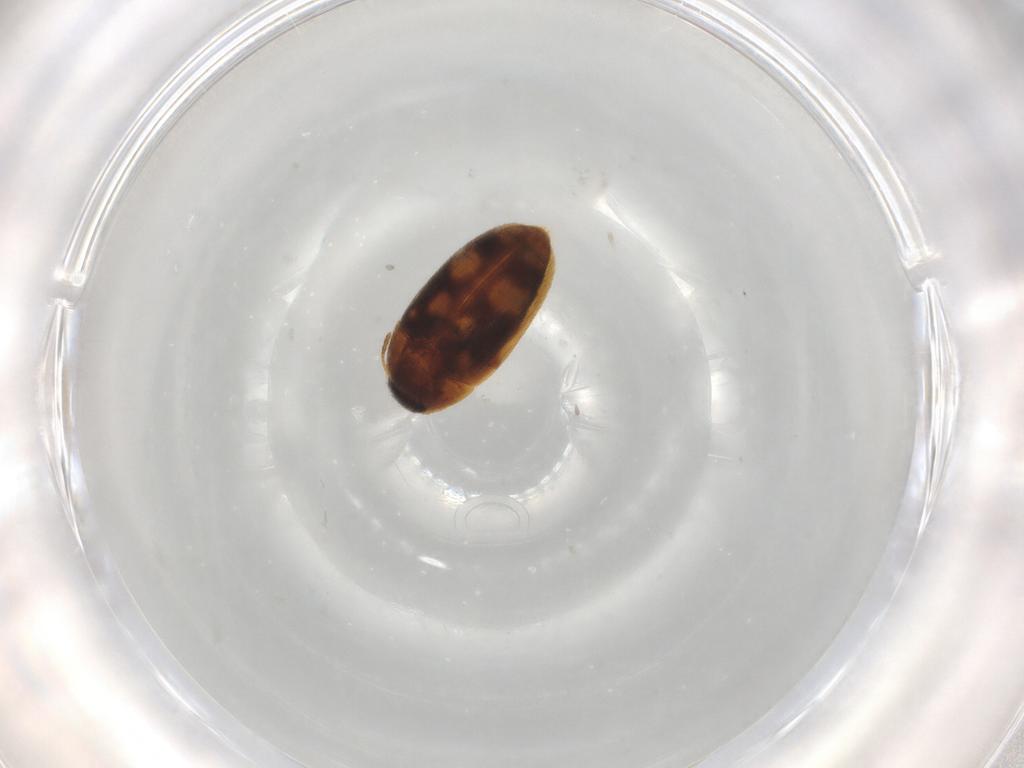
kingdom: Animalia
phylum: Arthropoda
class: Insecta
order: Coleoptera
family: Mycetophagidae
